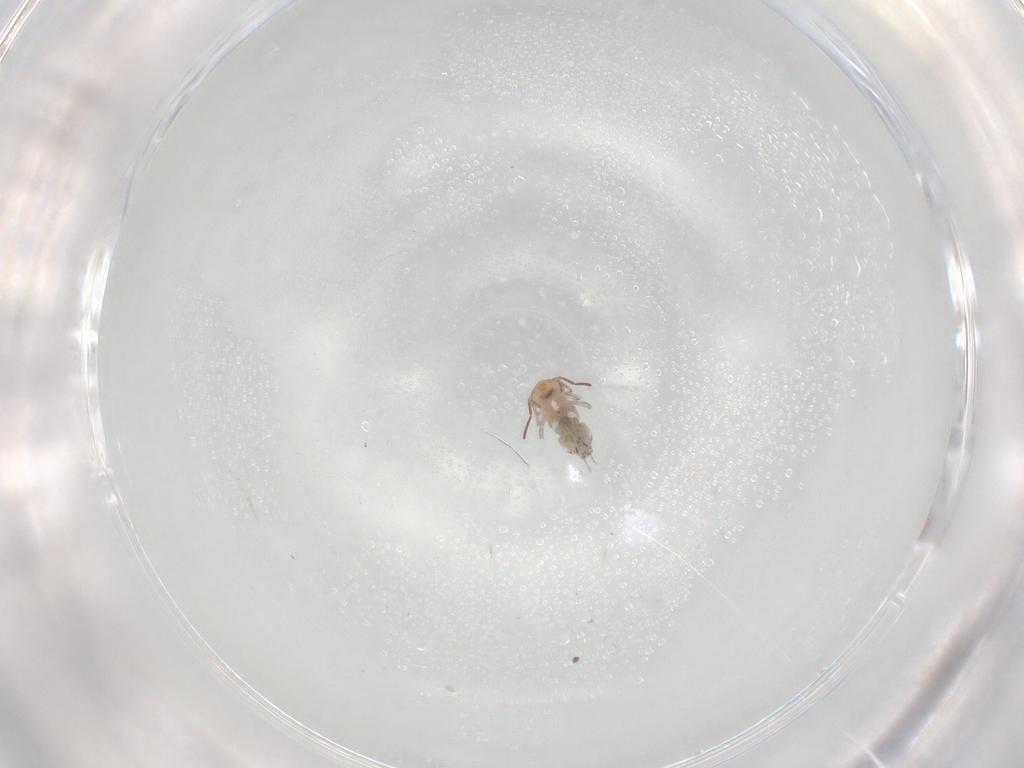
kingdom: Animalia
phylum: Arthropoda
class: Collembola
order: Symphypleona
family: Bourletiellidae
